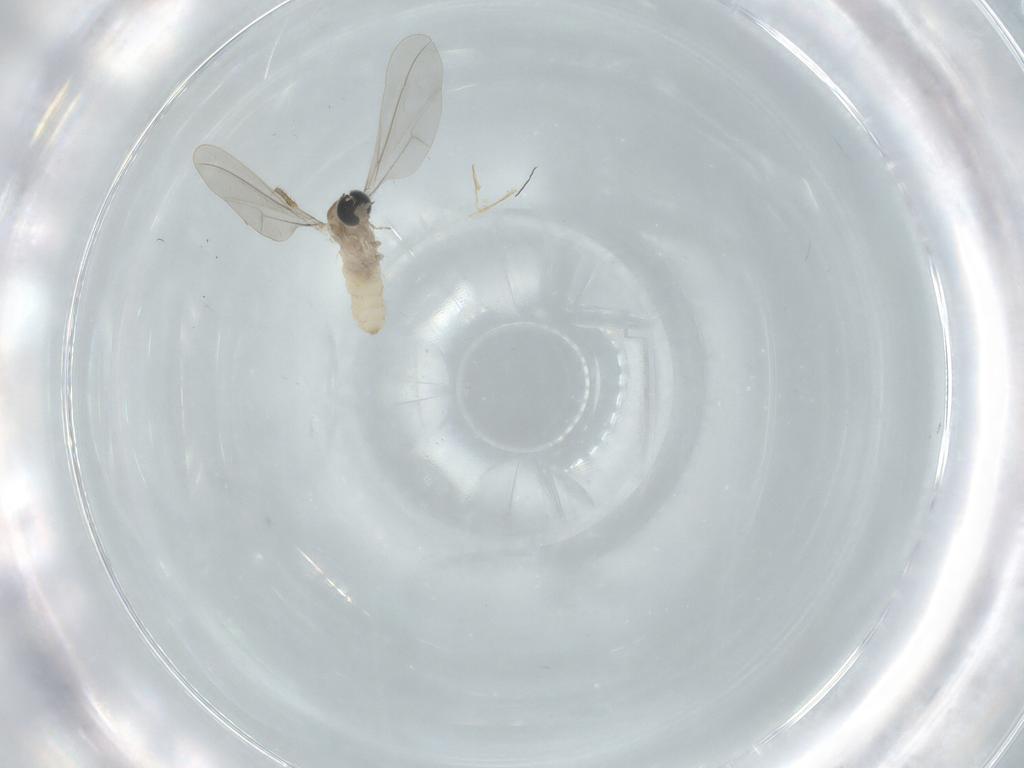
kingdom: Animalia
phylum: Arthropoda
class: Insecta
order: Diptera
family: Cecidomyiidae
